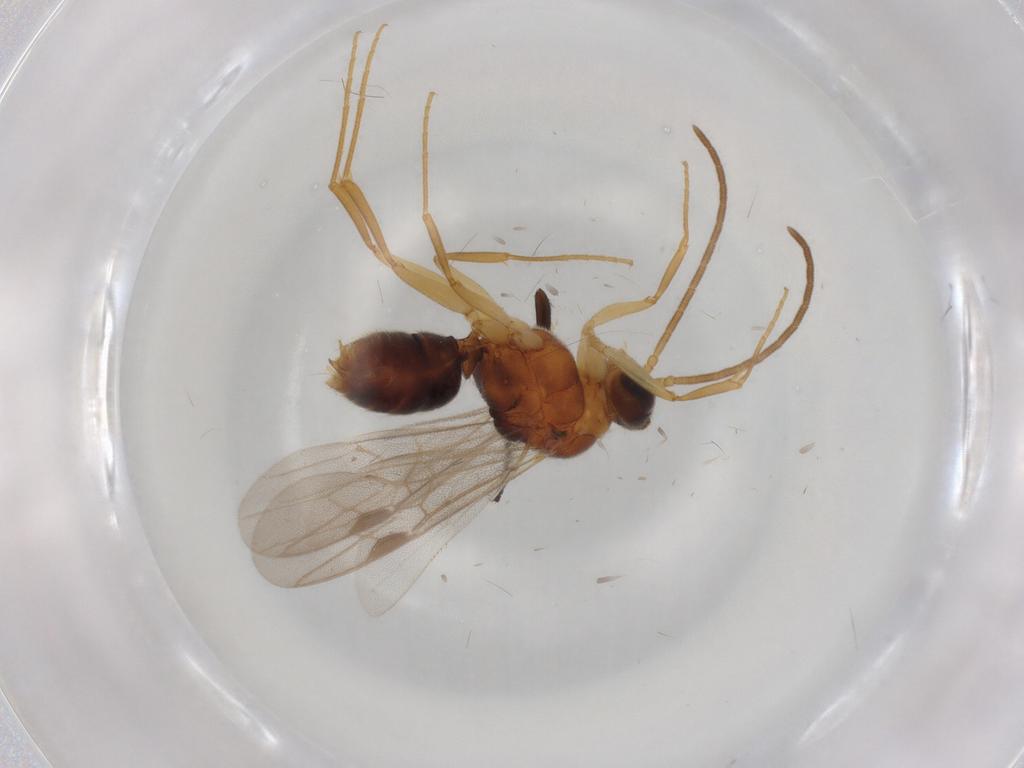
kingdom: Animalia
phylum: Arthropoda
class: Insecta
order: Hymenoptera
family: Formicidae
